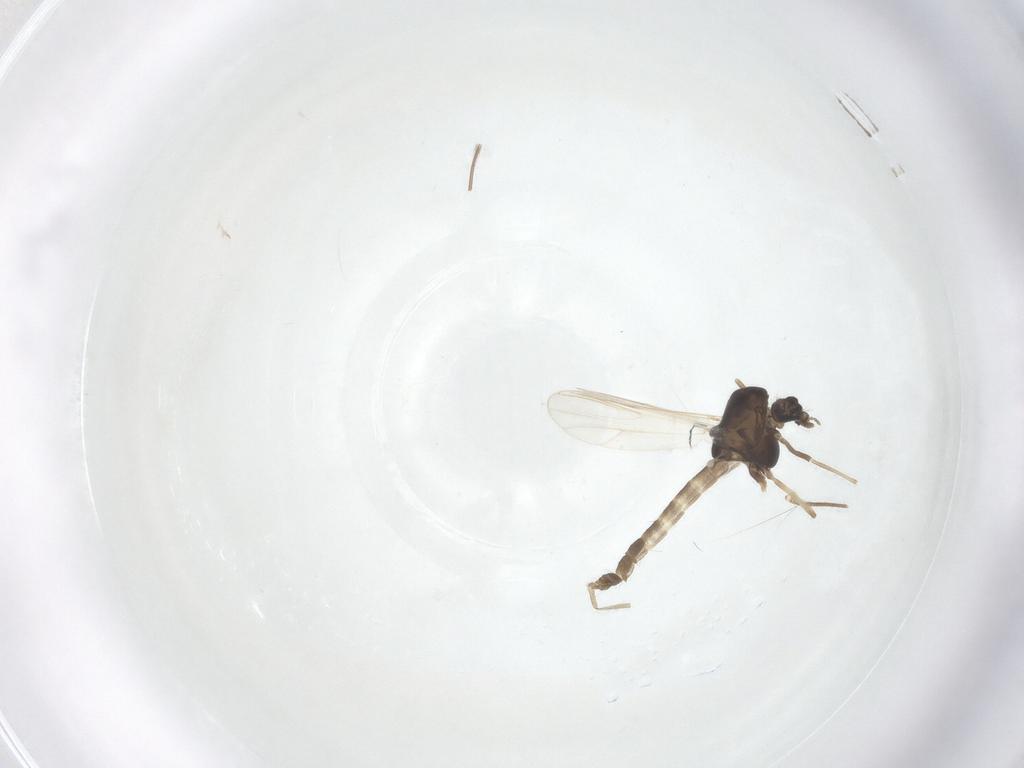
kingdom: Animalia
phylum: Arthropoda
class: Insecta
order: Diptera
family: Chironomidae
